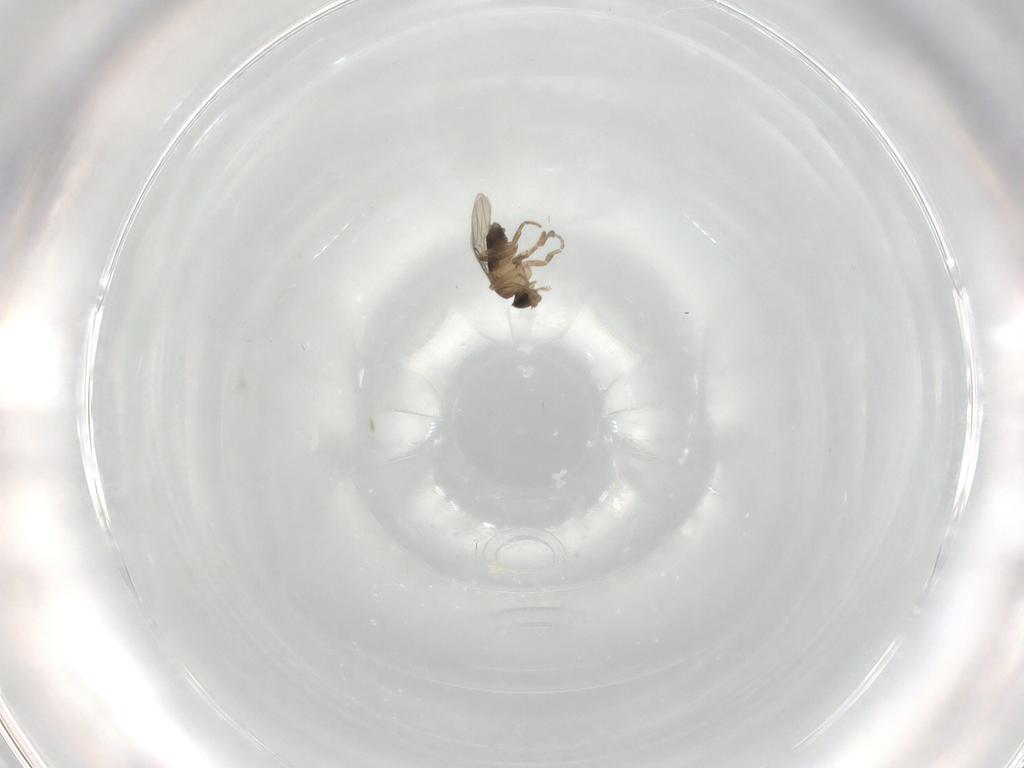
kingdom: Animalia
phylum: Arthropoda
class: Insecta
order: Diptera
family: Phoridae
